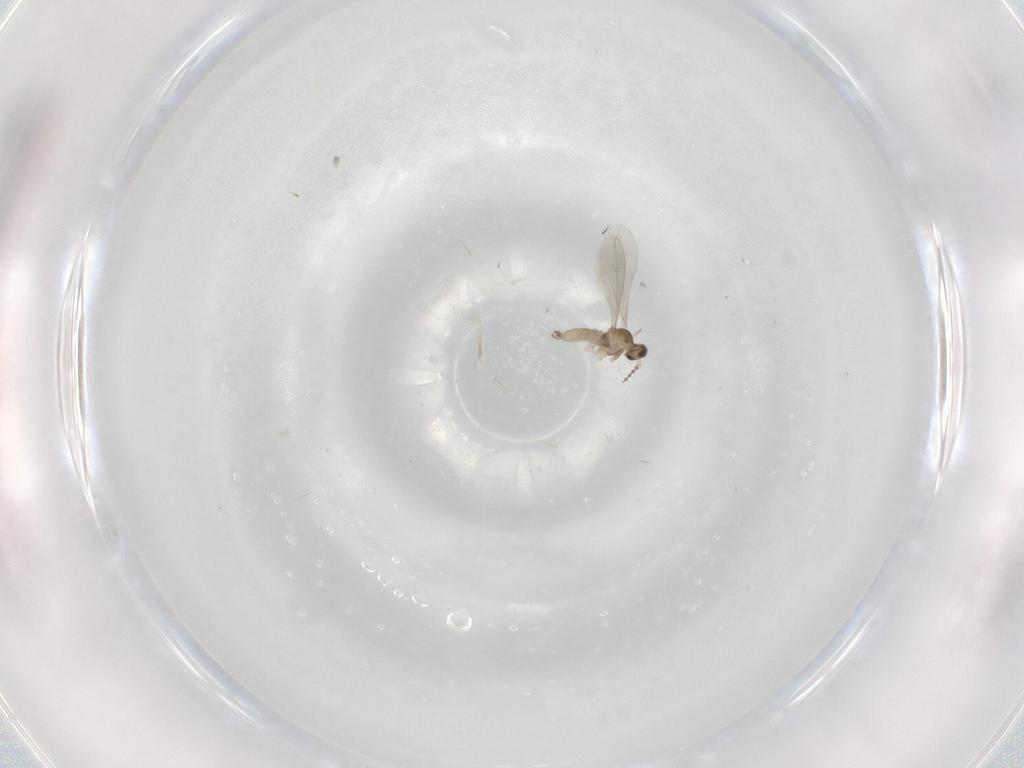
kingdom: Animalia
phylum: Arthropoda
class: Insecta
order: Diptera
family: Cecidomyiidae
